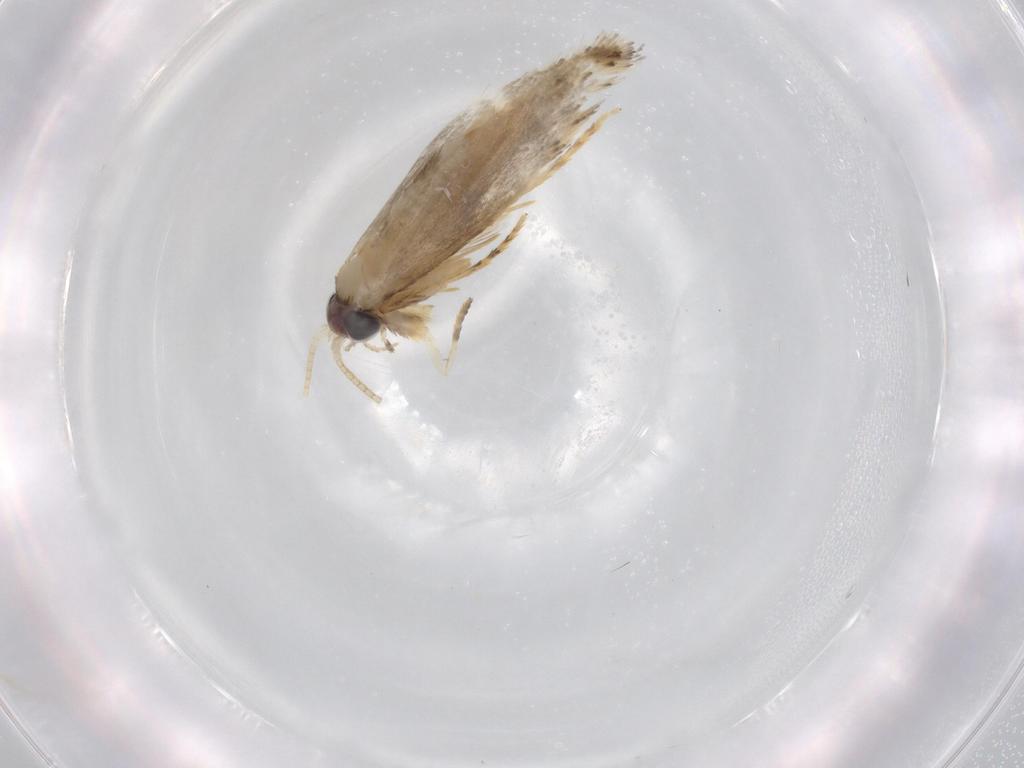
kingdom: Animalia
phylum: Arthropoda
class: Insecta
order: Lepidoptera
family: Nepticulidae
